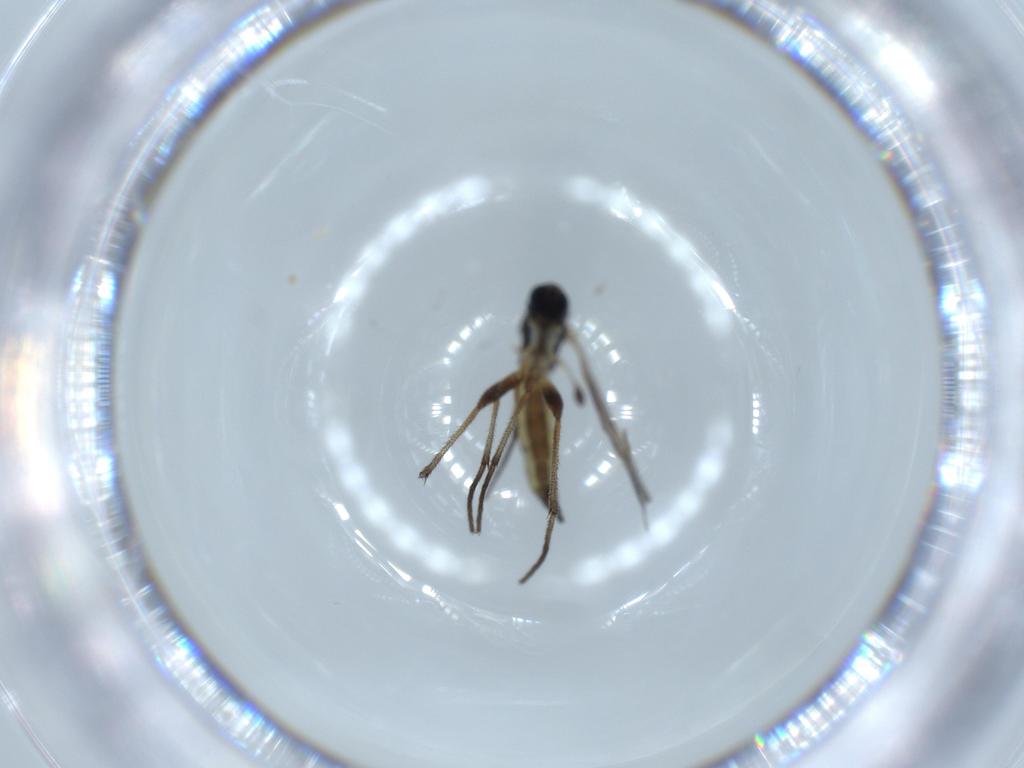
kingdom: Animalia
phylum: Arthropoda
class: Insecta
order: Diptera
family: Sciaridae
